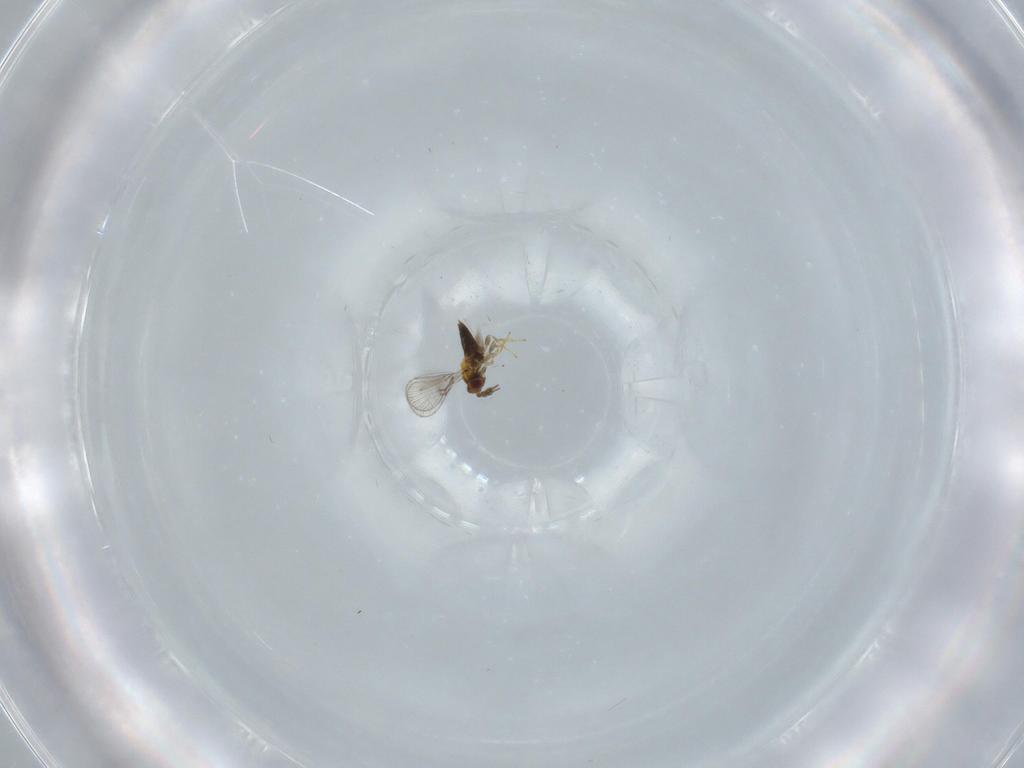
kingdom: Animalia
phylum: Arthropoda
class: Insecta
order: Hymenoptera
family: Trichogrammatidae
